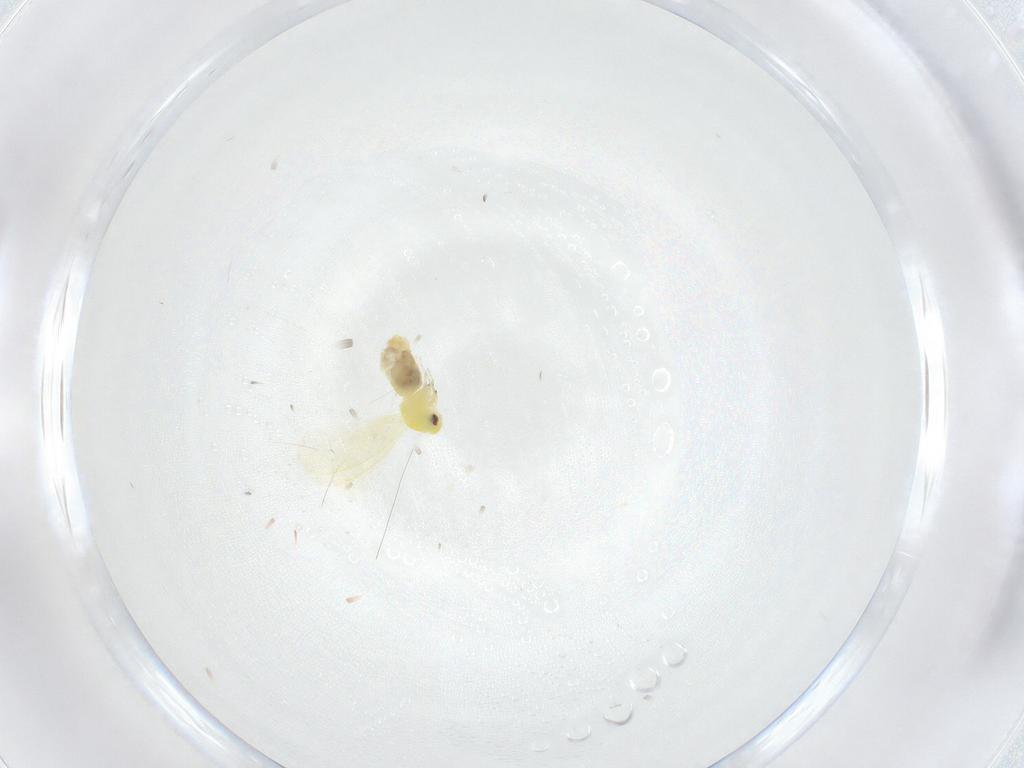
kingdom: Animalia
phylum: Arthropoda
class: Insecta
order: Hemiptera
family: Aleyrodidae
